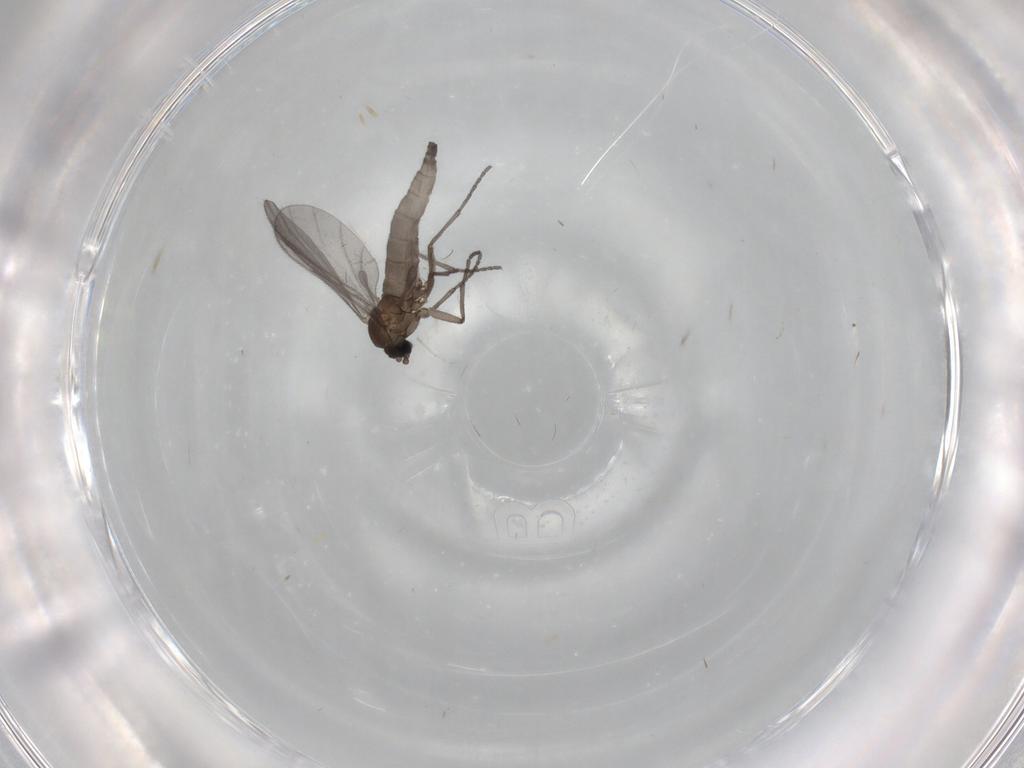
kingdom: Animalia
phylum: Arthropoda
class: Insecta
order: Diptera
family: Sciaridae
